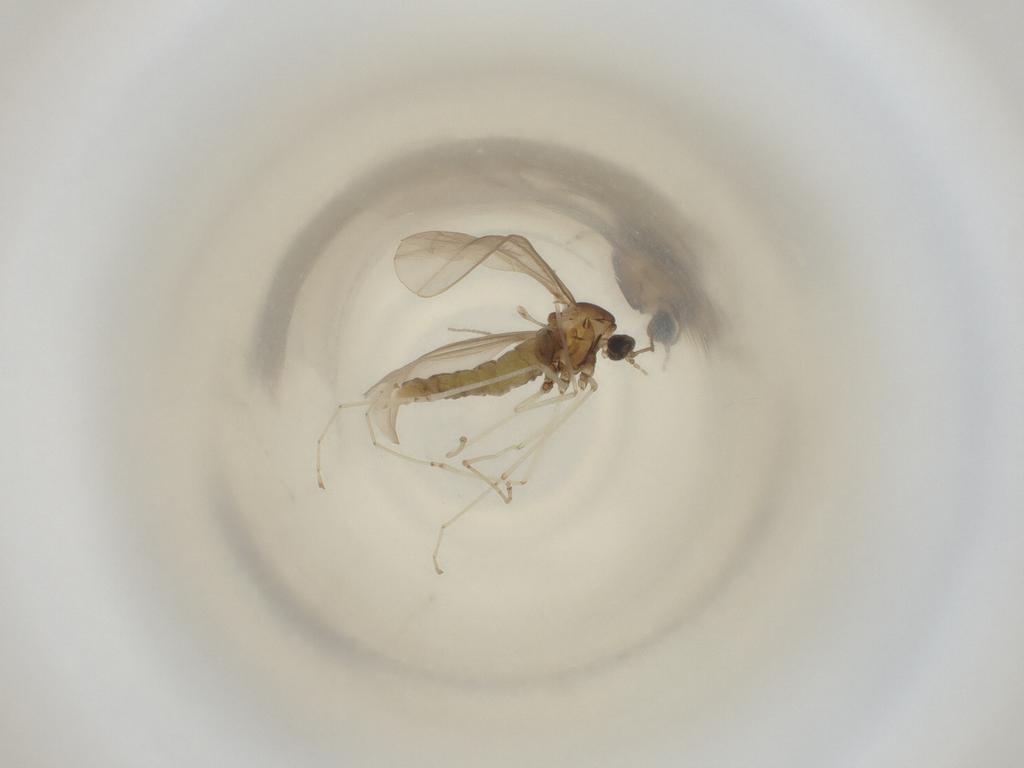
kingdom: Animalia
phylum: Arthropoda
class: Insecta
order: Diptera
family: Cecidomyiidae
